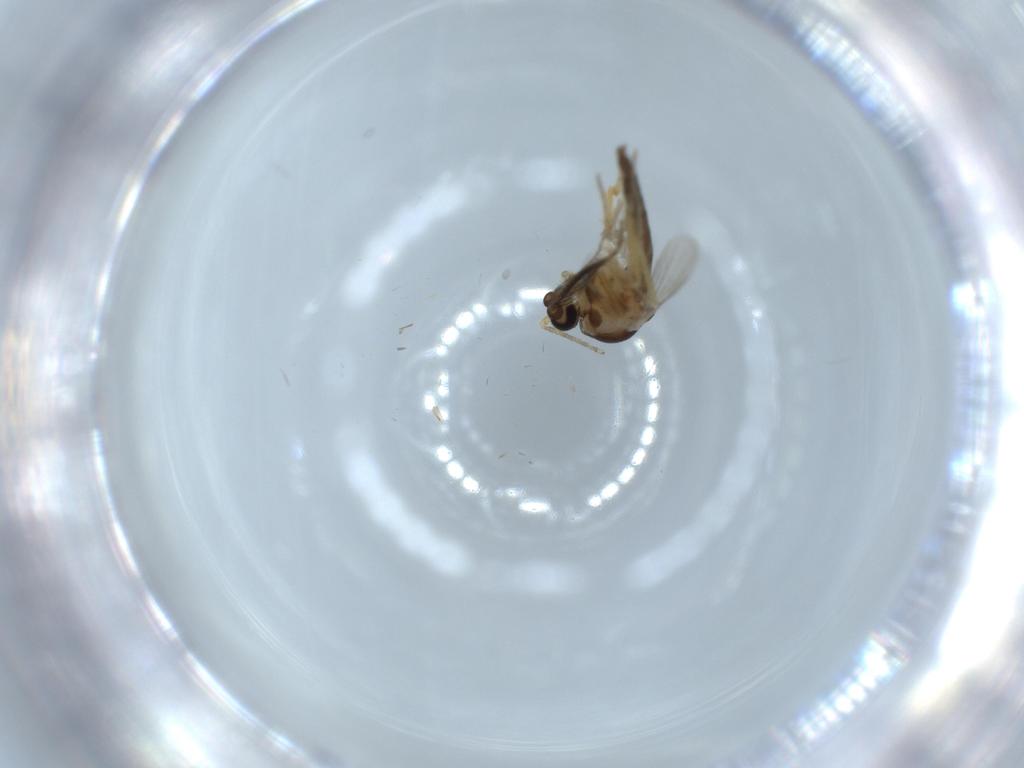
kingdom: Animalia
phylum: Arthropoda
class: Insecta
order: Diptera
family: Ceratopogonidae
